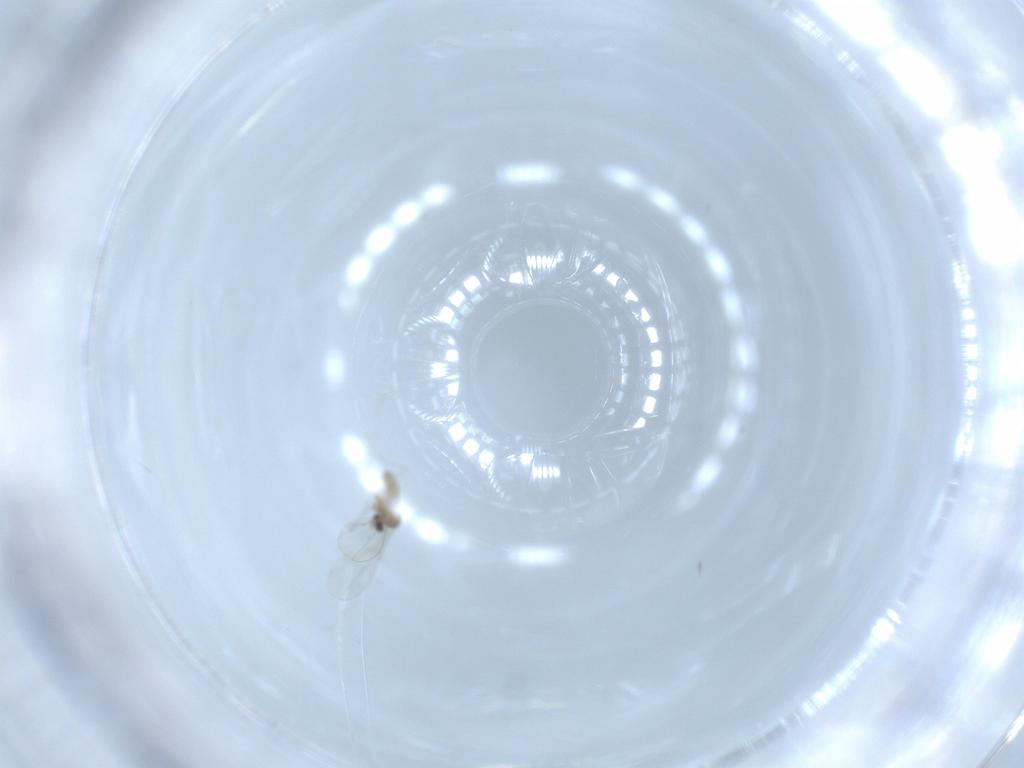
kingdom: Animalia
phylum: Arthropoda
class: Insecta
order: Diptera
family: Cecidomyiidae
